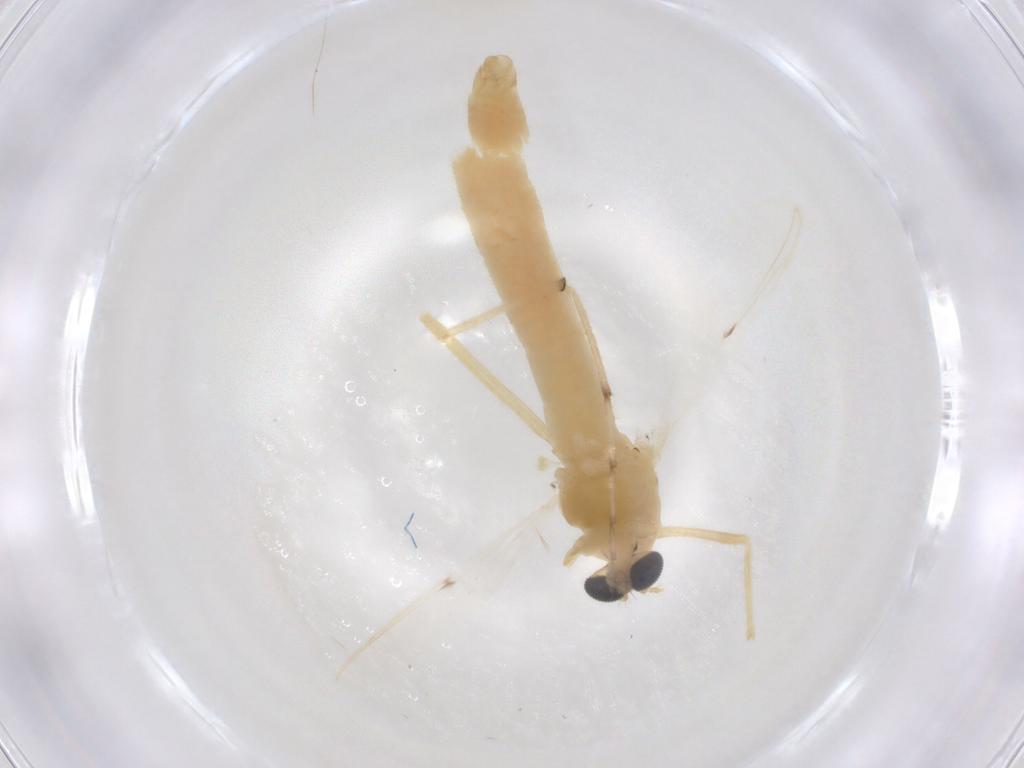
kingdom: Animalia
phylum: Arthropoda
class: Insecta
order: Diptera
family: Chironomidae
